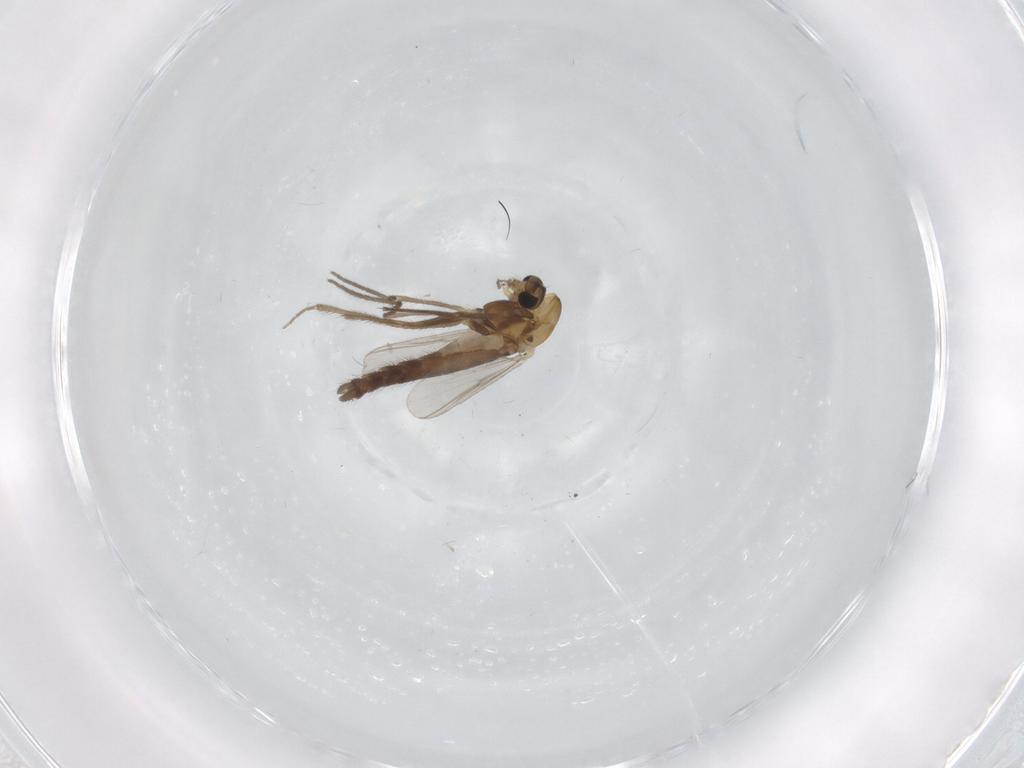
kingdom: Animalia
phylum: Arthropoda
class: Insecta
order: Diptera
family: Chironomidae
